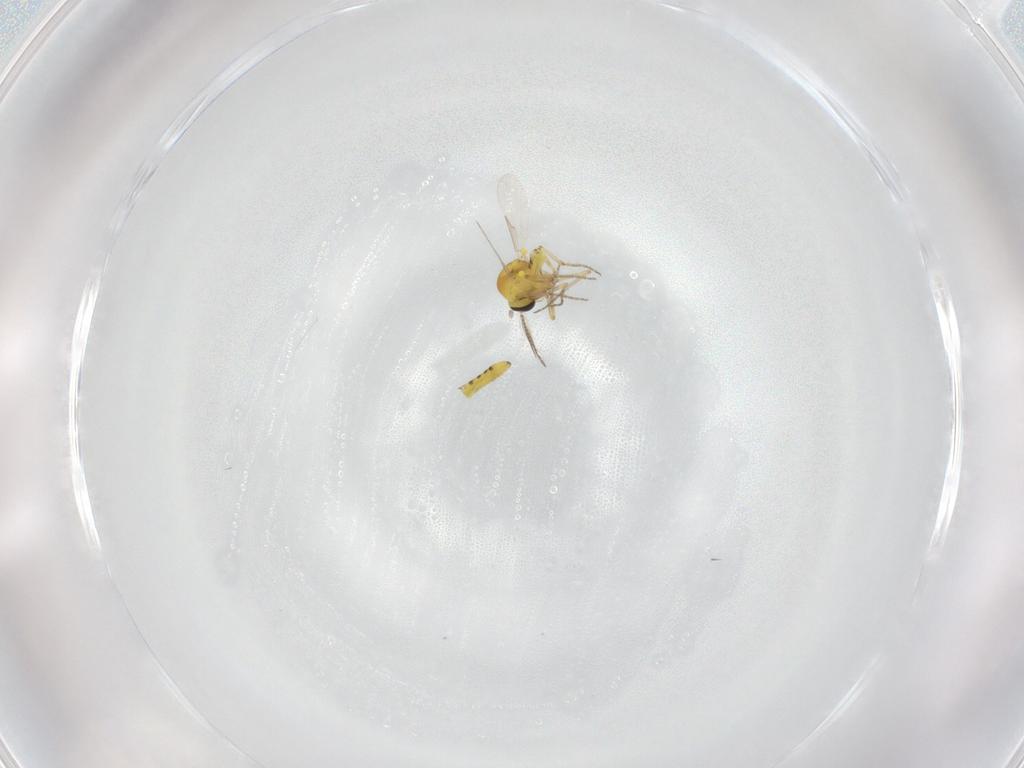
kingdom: Animalia
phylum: Arthropoda
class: Insecta
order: Diptera
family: Ceratopogonidae
